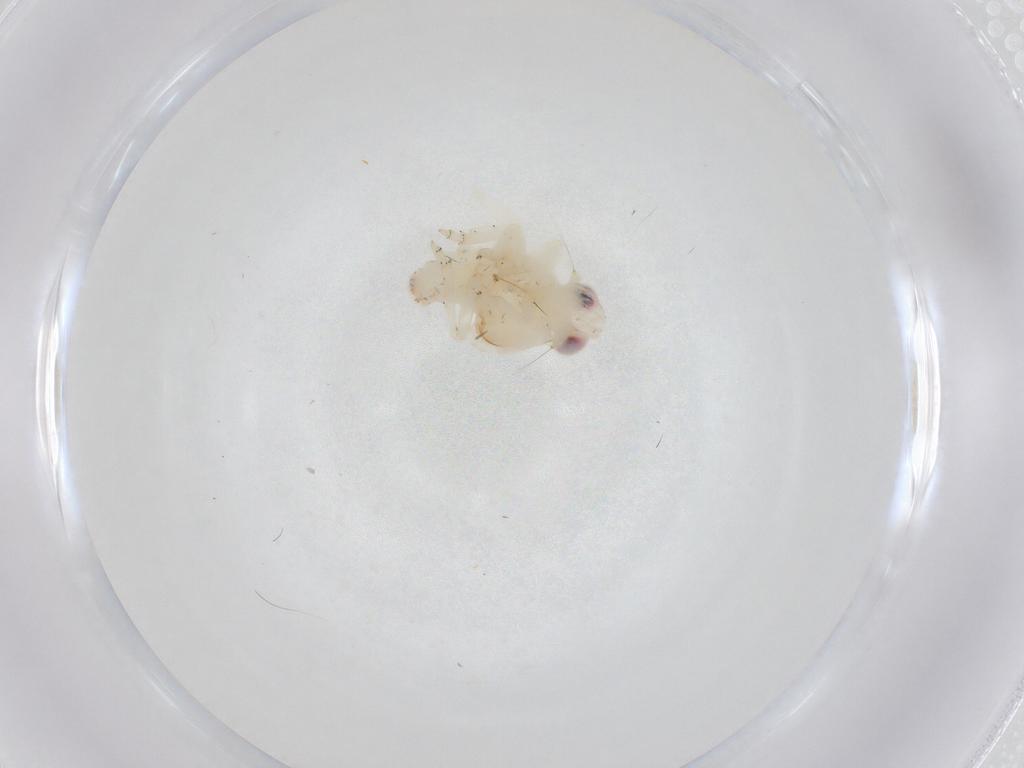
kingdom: Animalia
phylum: Arthropoda
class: Insecta
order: Hemiptera
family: Nogodinidae
